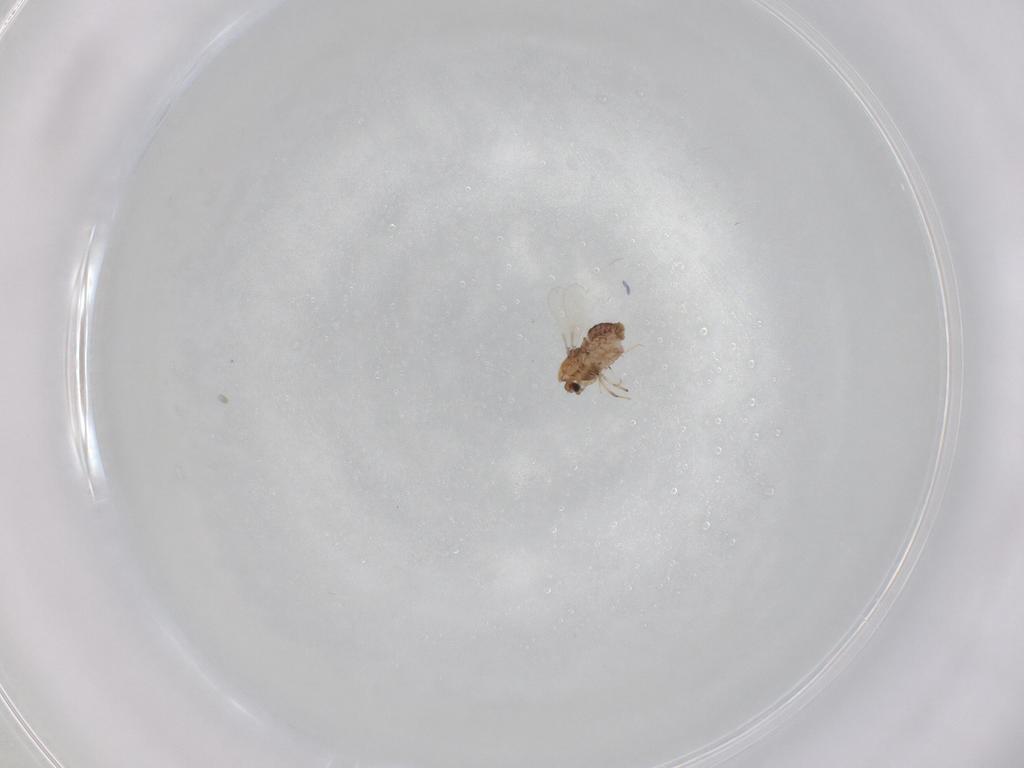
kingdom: Animalia
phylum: Arthropoda
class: Insecta
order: Diptera
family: Chironomidae
